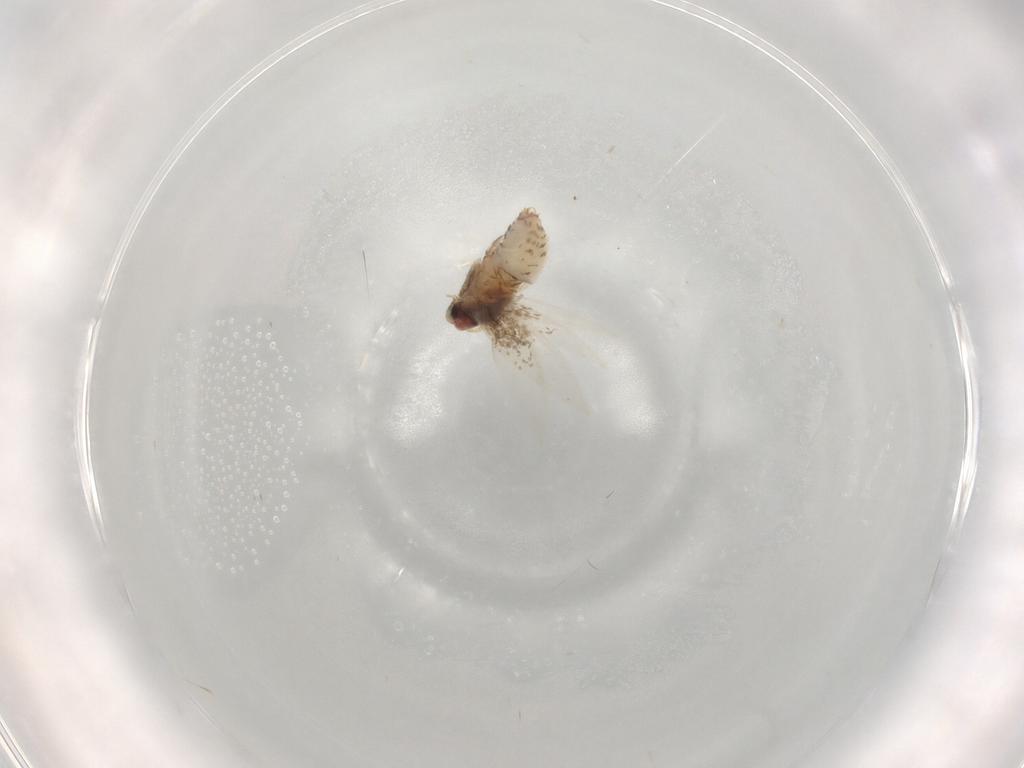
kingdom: Animalia
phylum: Arthropoda
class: Insecta
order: Lepidoptera
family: Nepticulidae
